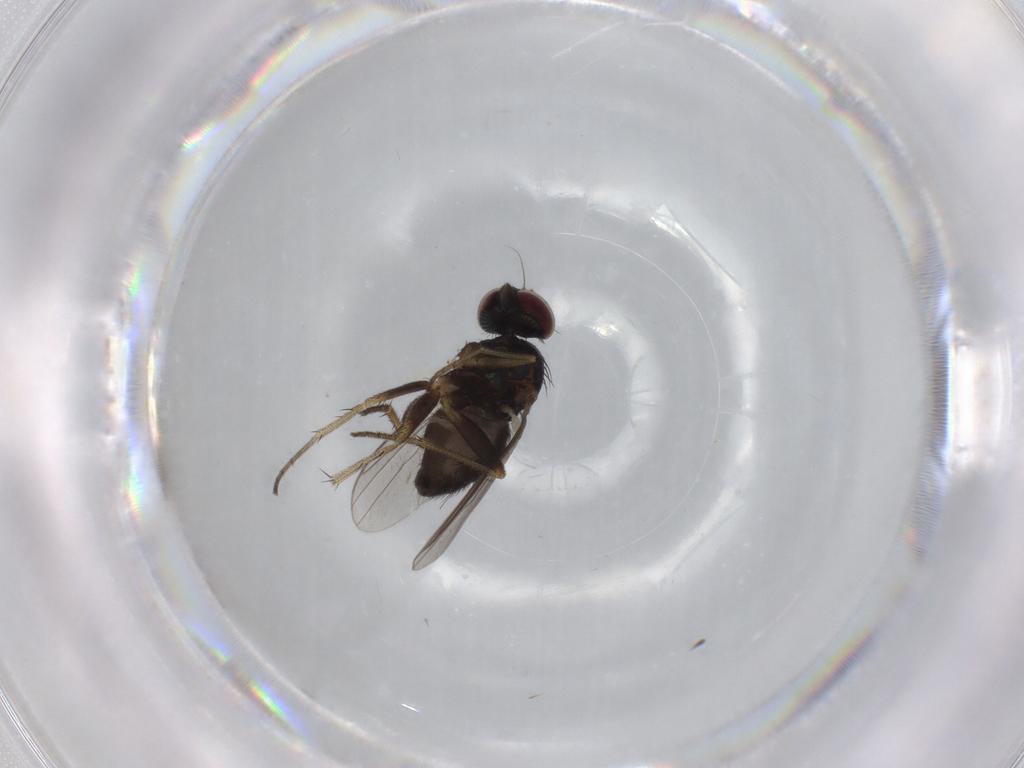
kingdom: Animalia
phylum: Arthropoda
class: Insecta
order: Diptera
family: Dolichopodidae
